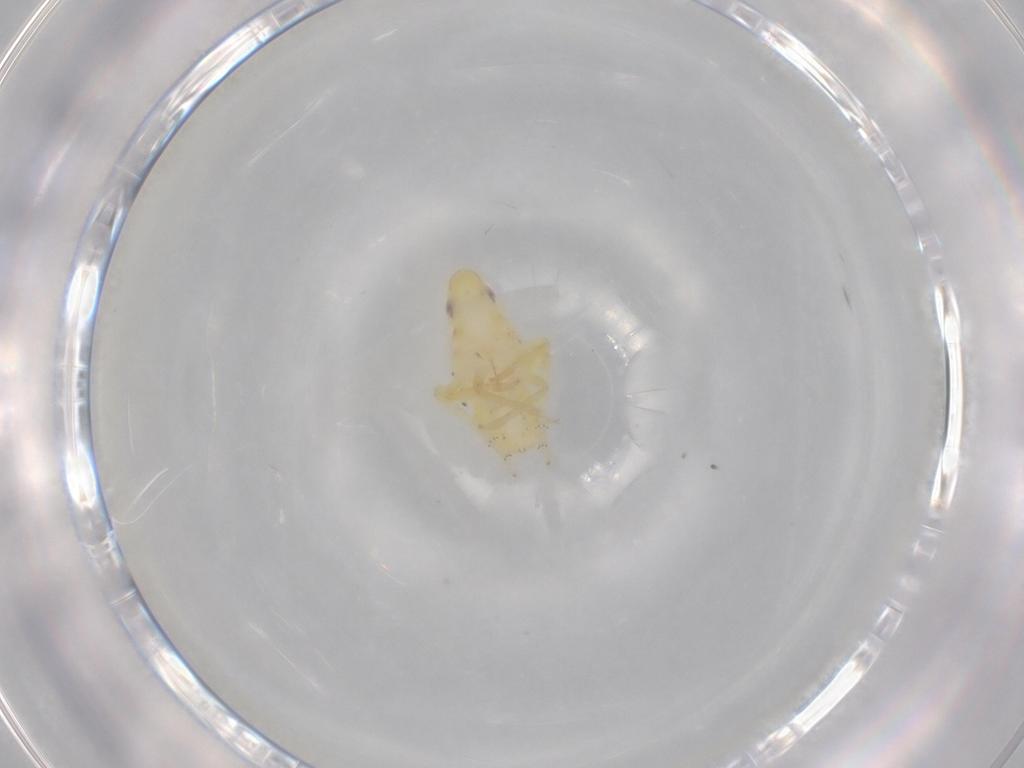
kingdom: Animalia
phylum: Arthropoda
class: Insecta
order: Hemiptera
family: Tropiduchidae
